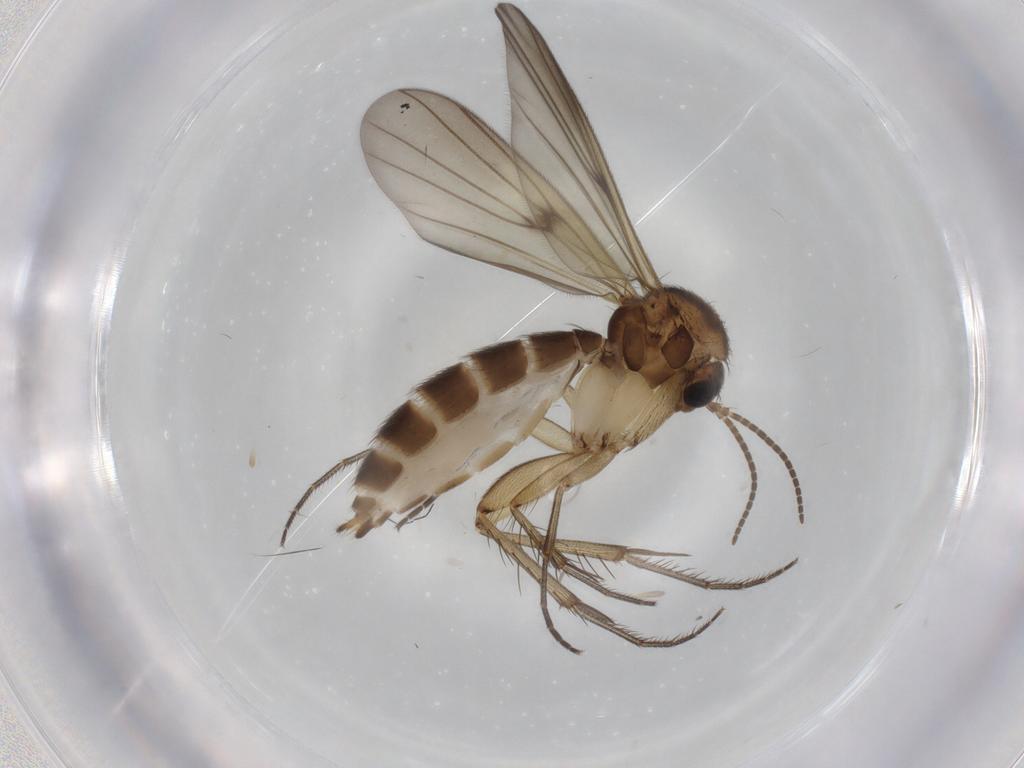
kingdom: Animalia
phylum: Arthropoda
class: Insecta
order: Diptera
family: Mycetophilidae
